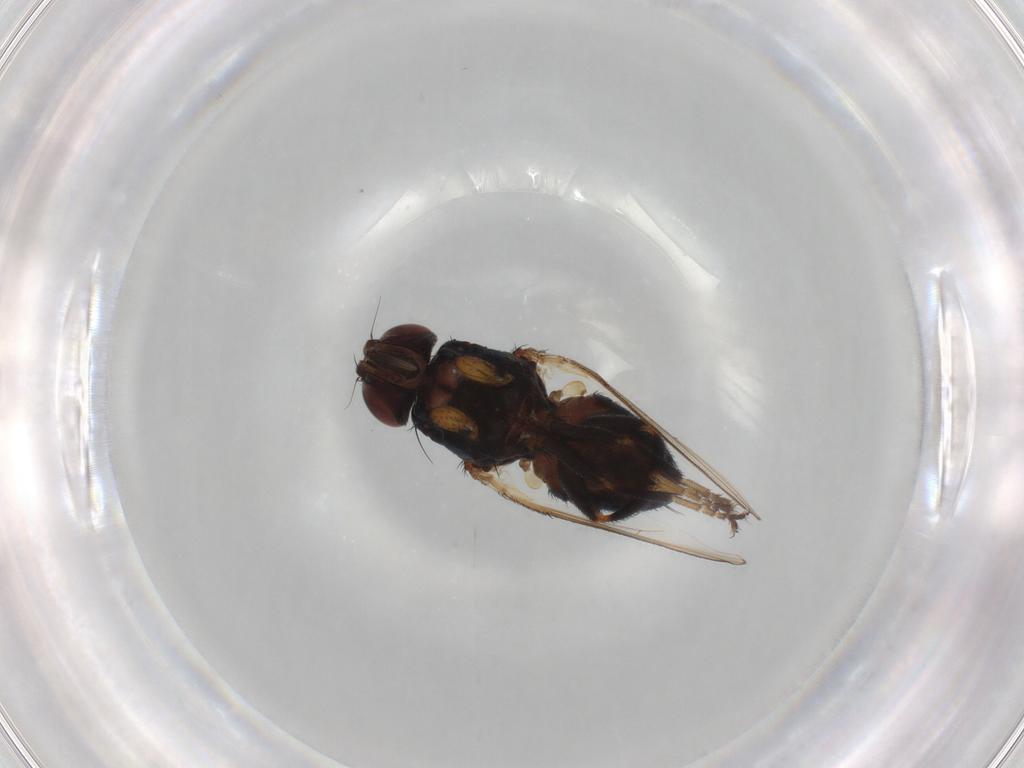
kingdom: Animalia
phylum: Arthropoda
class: Insecta
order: Diptera
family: Milichiidae
